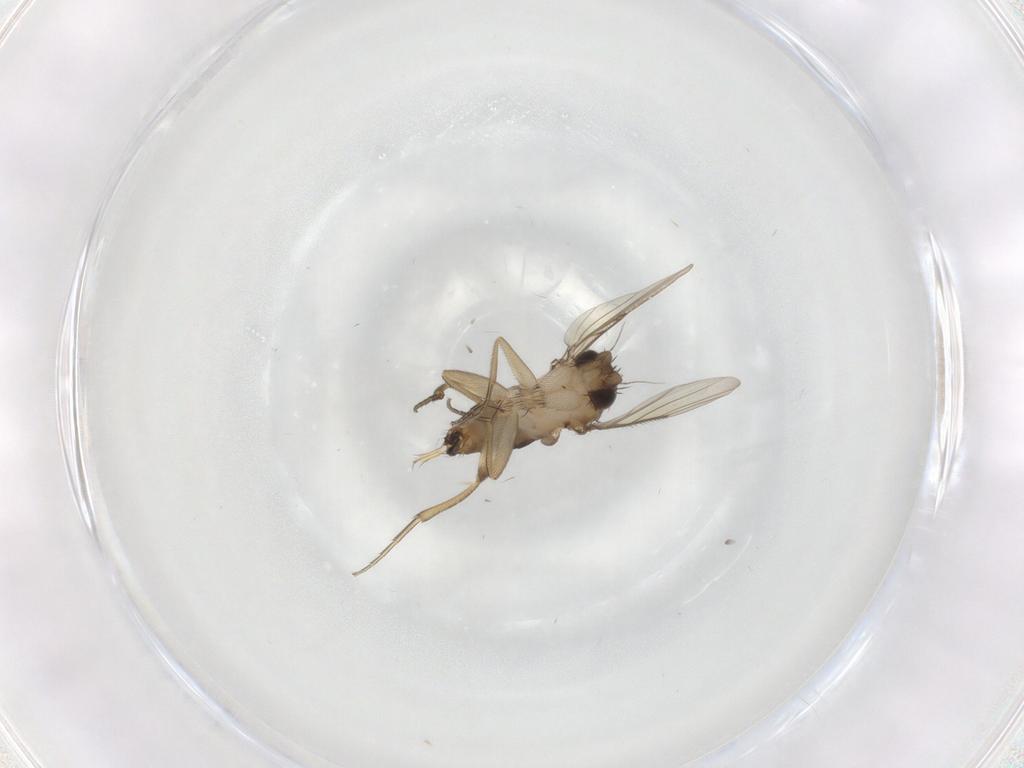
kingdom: Animalia
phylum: Arthropoda
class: Insecta
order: Diptera
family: Phoridae
